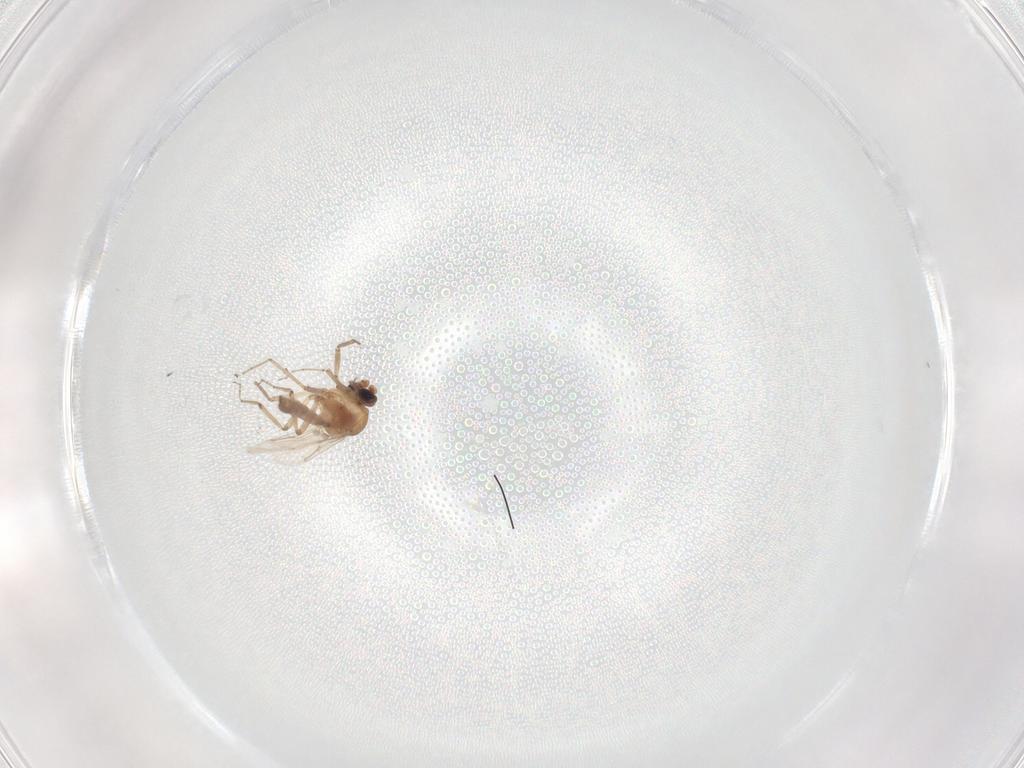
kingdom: Animalia
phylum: Arthropoda
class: Insecta
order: Diptera
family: Chironomidae
